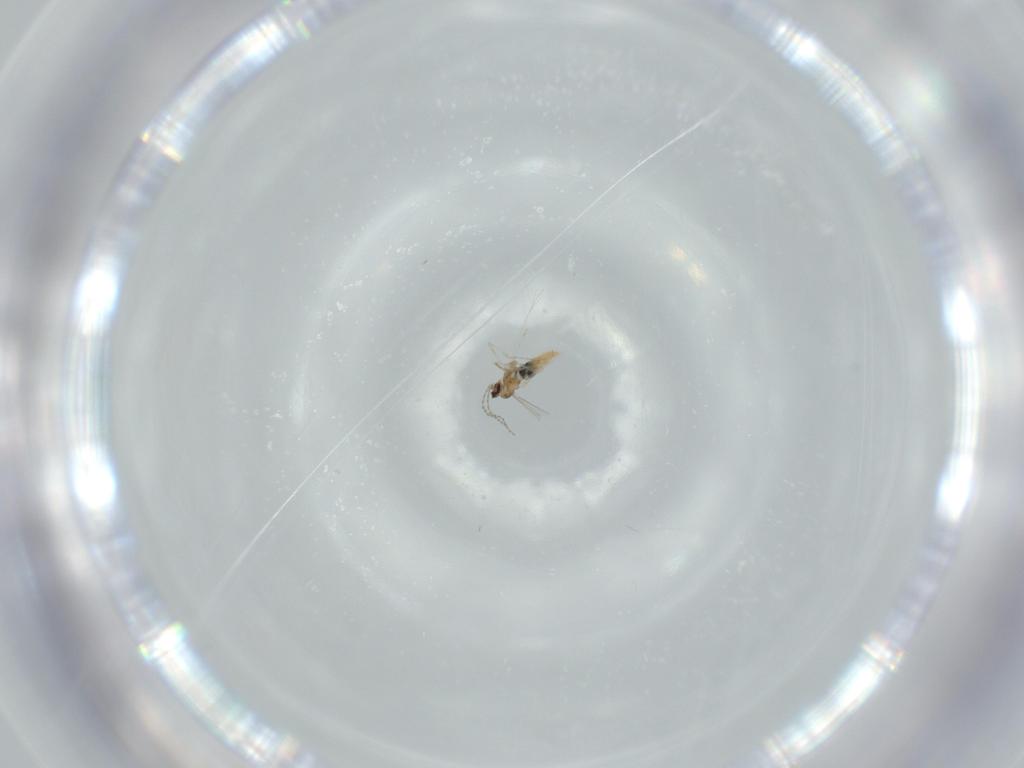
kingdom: Animalia
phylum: Arthropoda
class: Insecta
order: Diptera
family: Cecidomyiidae
